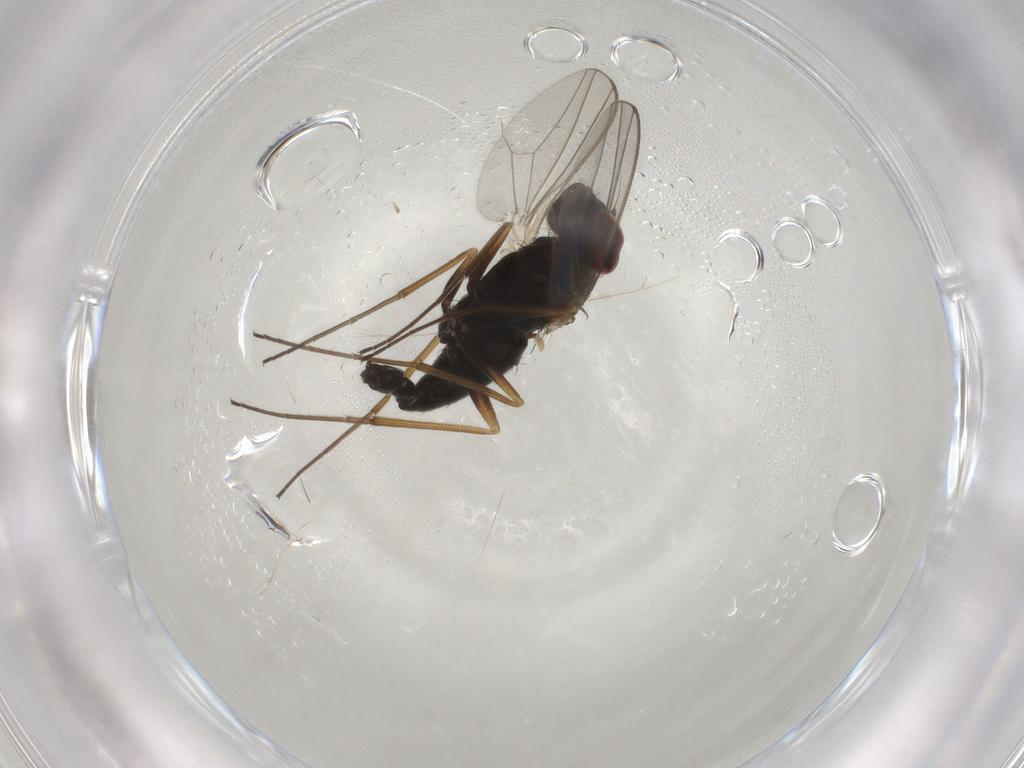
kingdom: Animalia
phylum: Arthropoda
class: Insecta
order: Diptera
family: Dolichopodidae
